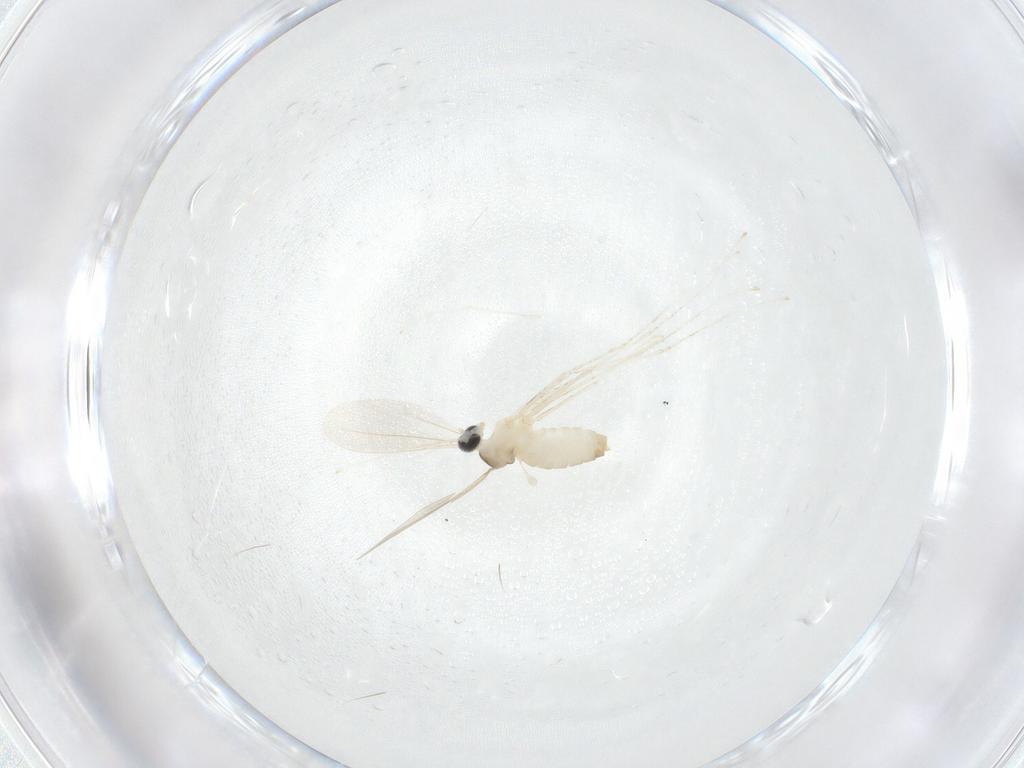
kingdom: Animalia
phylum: Arthropoda
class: Insecta
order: Diptera
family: Cecidomyiidae
